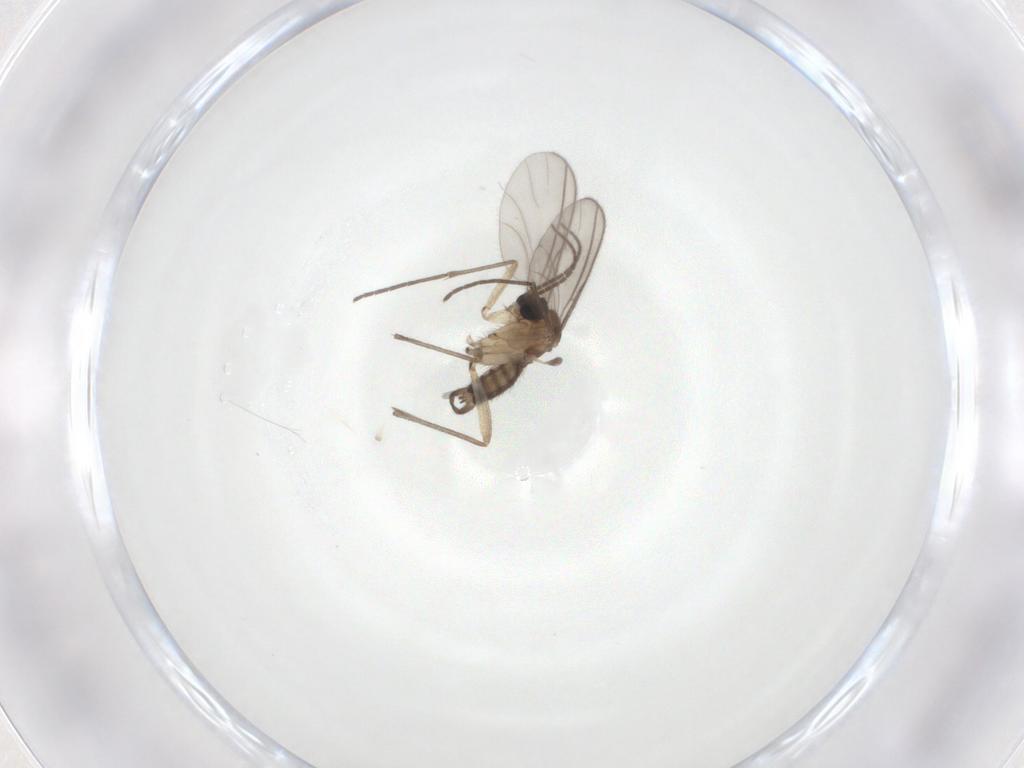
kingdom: Animalia
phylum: Arthropoda
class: Insecta
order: Diptera
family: Sciaridae
